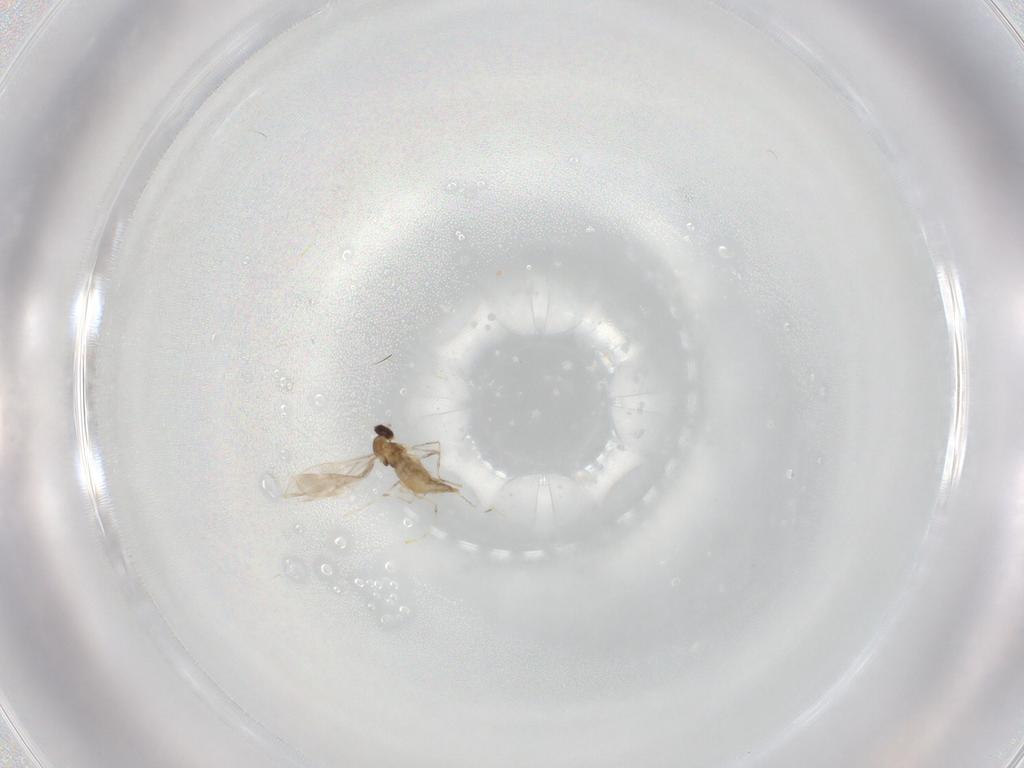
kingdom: Animalia
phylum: Arthropoda
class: Insecta
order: Diptera
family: Cecidomyiidae
